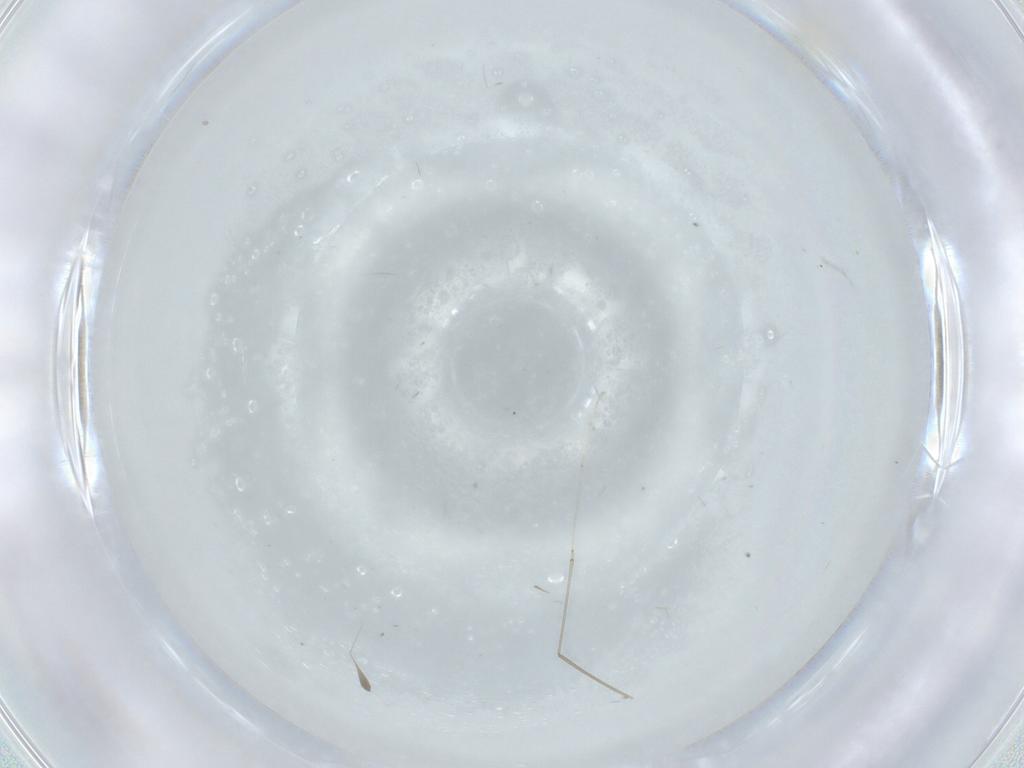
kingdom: Animalia
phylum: Arthropoda
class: Insecta
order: Diptera
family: Cecidomyiidae
